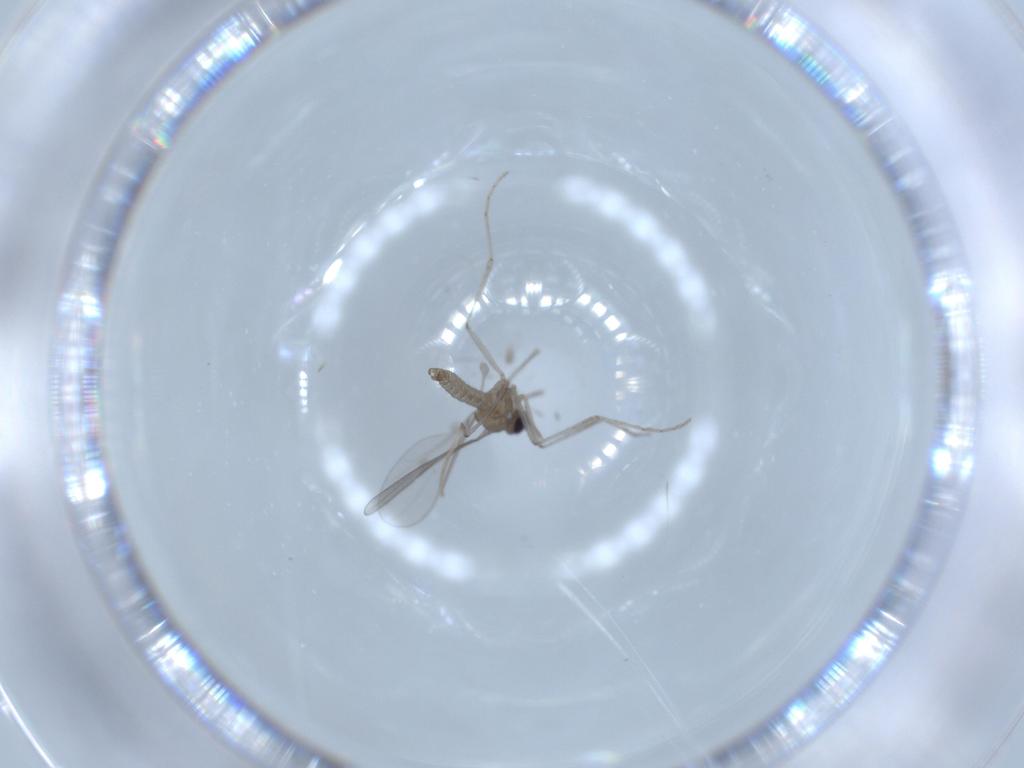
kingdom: Animalia
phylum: Arthropoda
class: Insecta
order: Diptera
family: Cecidomyiidae
